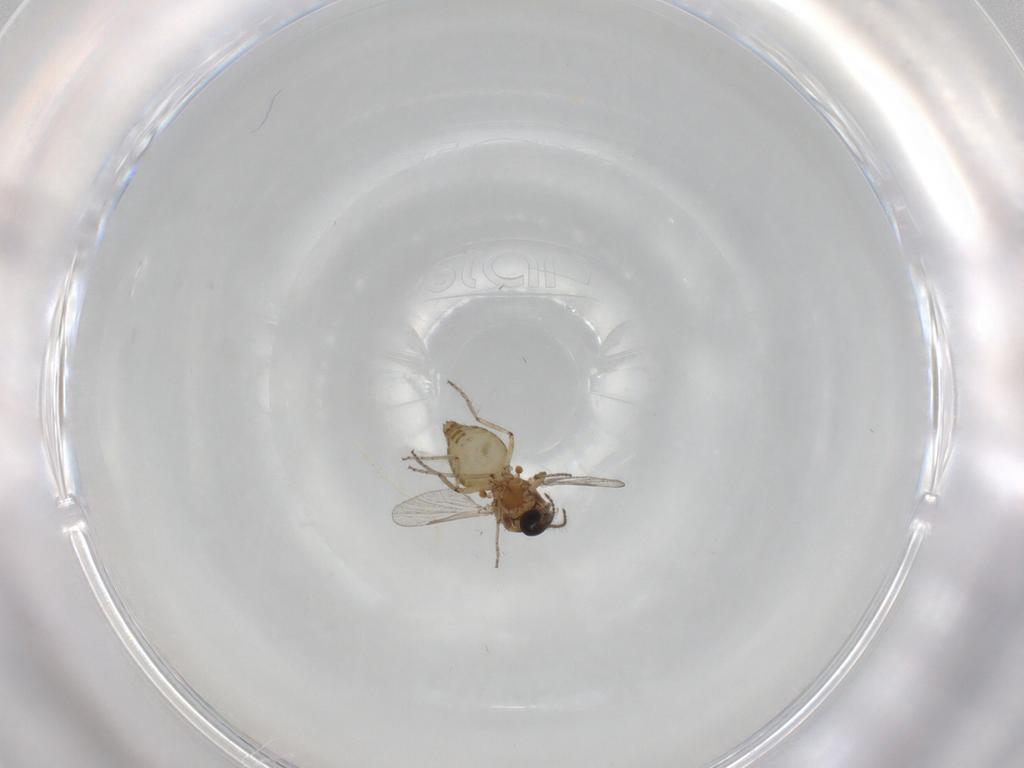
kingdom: Animalia
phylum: Arthropoda
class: Insecta
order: Diptera
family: Ceratopogonidae
